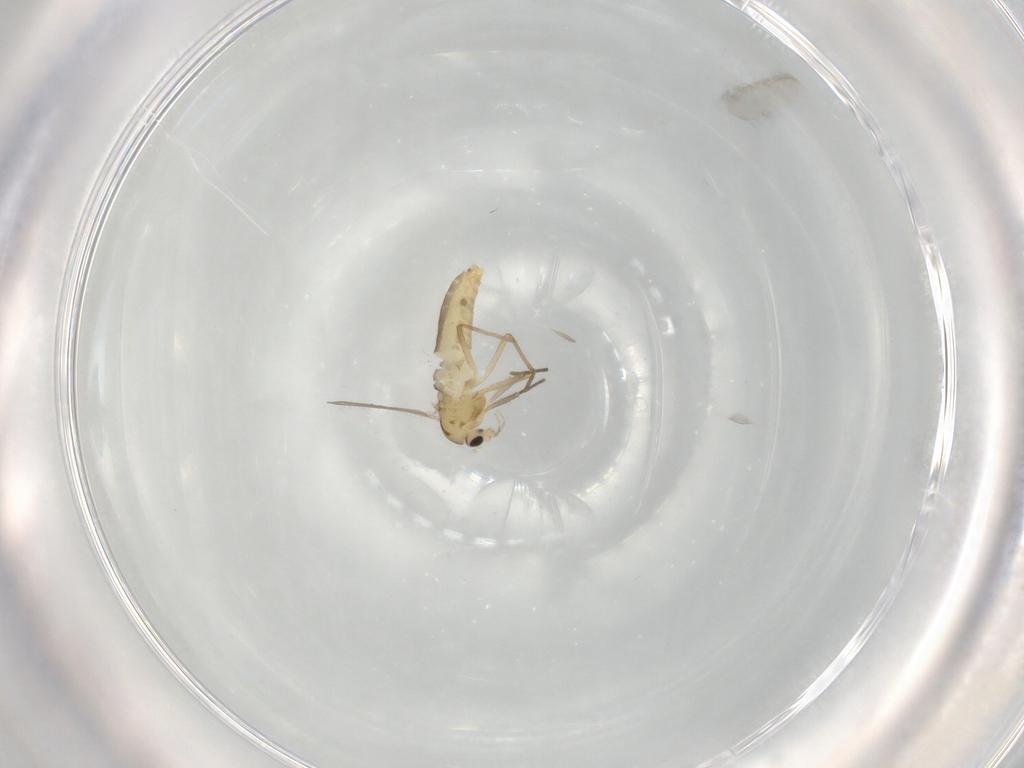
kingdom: Animalia
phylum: Arthropoda
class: Insecta
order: Diptera
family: Chironomidae
